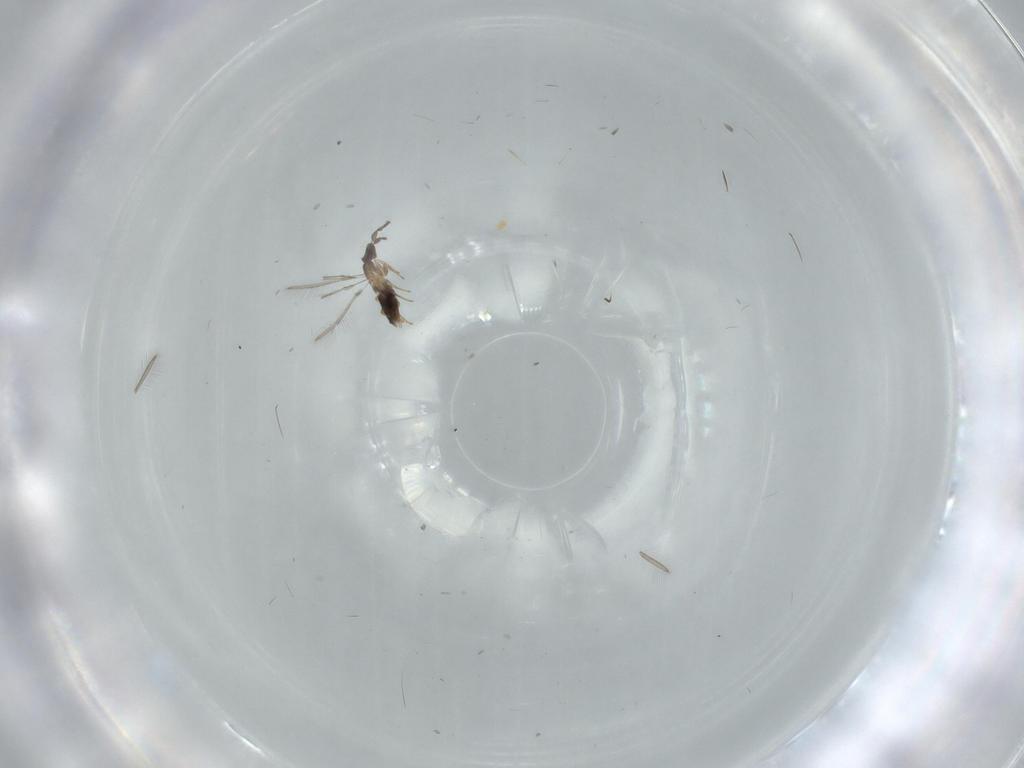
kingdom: Animalia
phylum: Arthropoda
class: Insecta
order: Hymenoptera
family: Mymaridae
